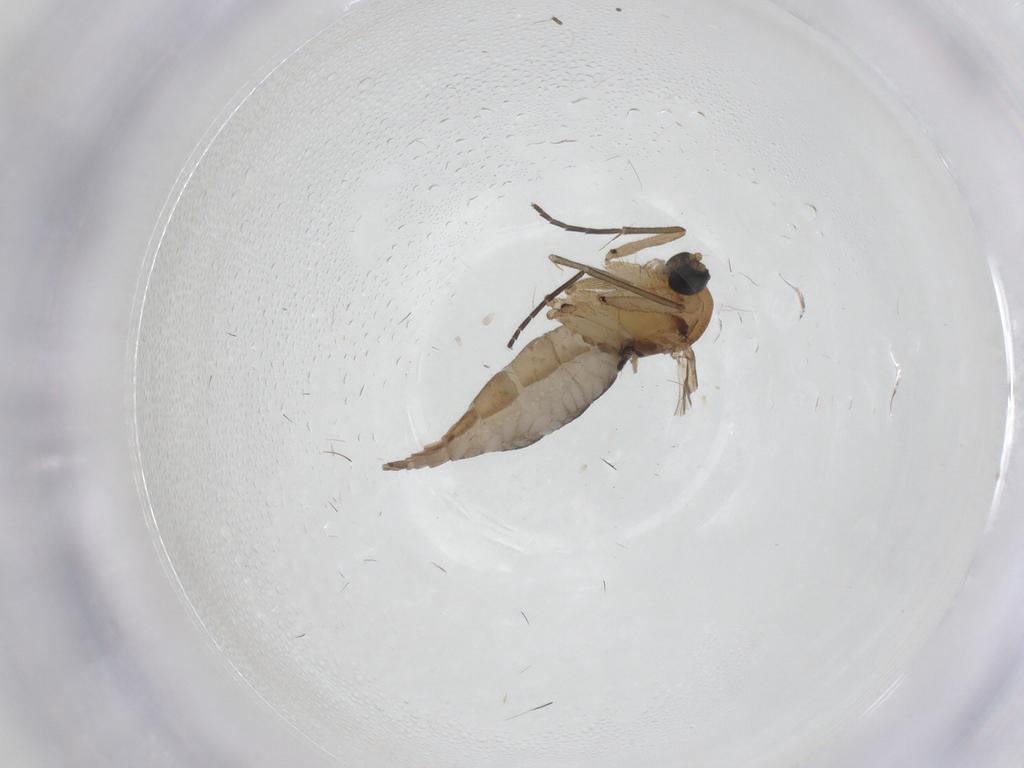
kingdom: Animalia
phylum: Arthropoda
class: Insecta
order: Diptera
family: Sciaridae
